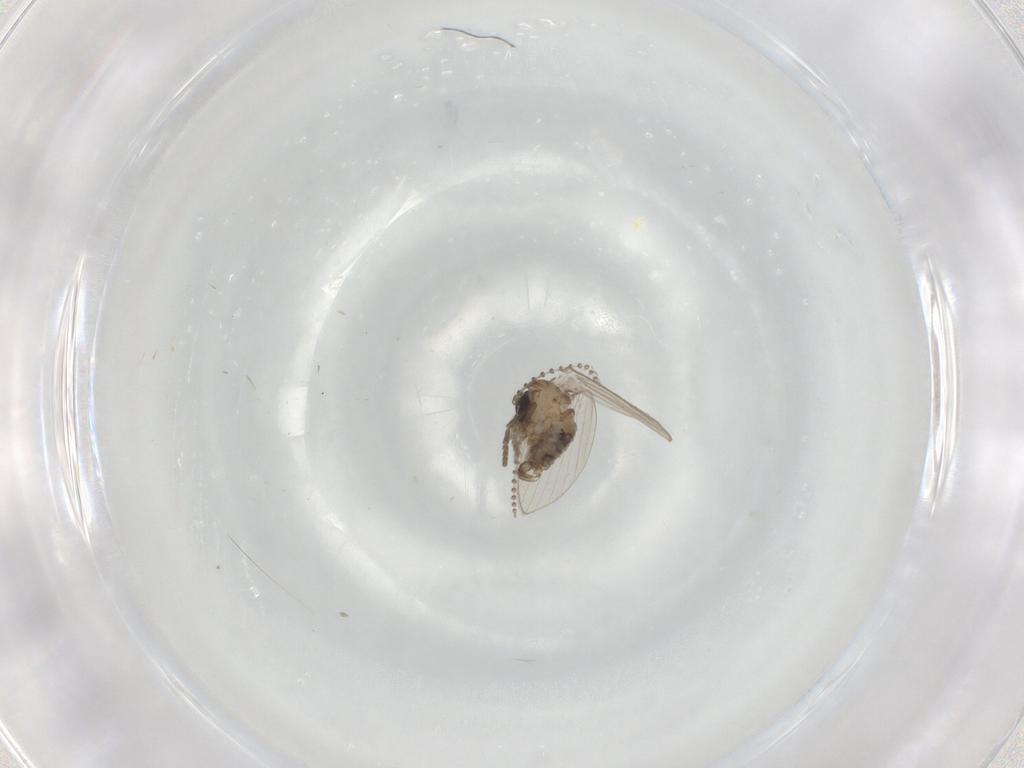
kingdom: Animalia
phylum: Arthropoda
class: Insecta
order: Diptera
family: Psychodidae
